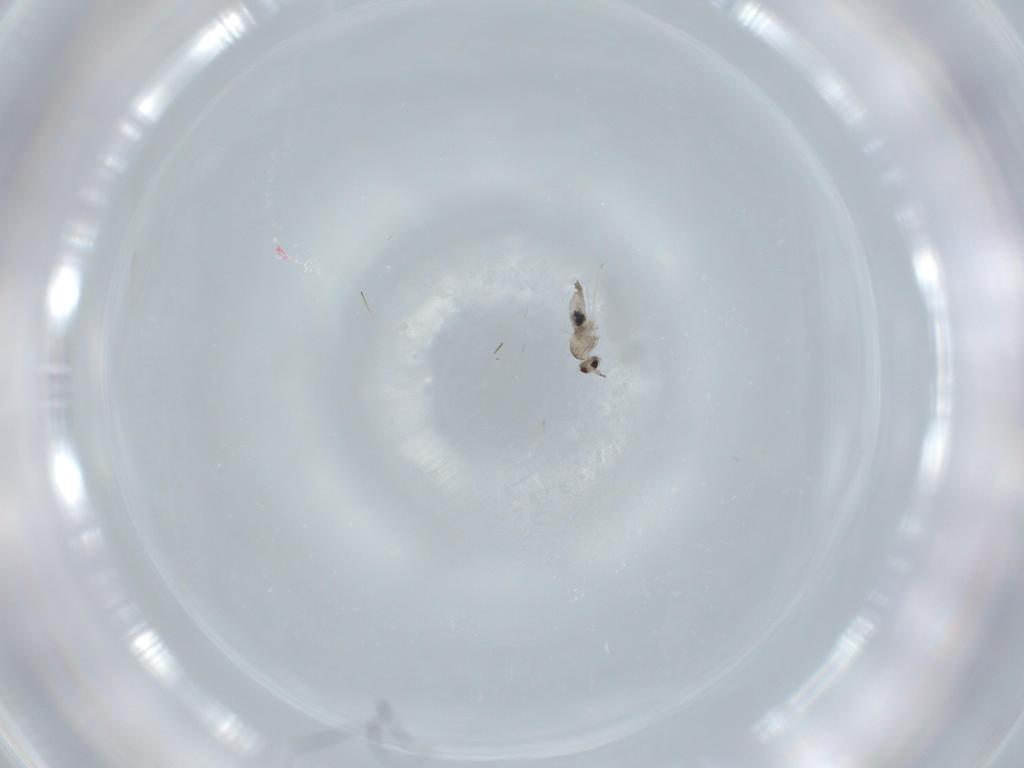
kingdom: Animalia
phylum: Arthropoda
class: Insecta
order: Diptera
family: Cecidomyiidae
